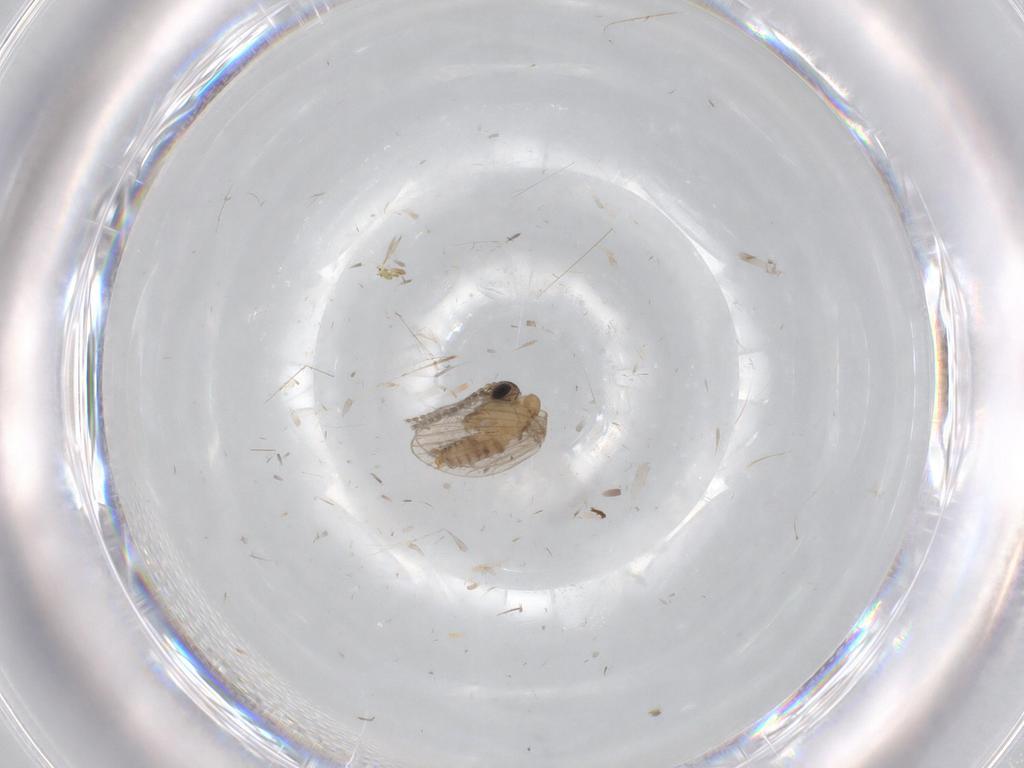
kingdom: Animalia
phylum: Arthropoda
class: Insecta
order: Diptera
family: Psychodidae
